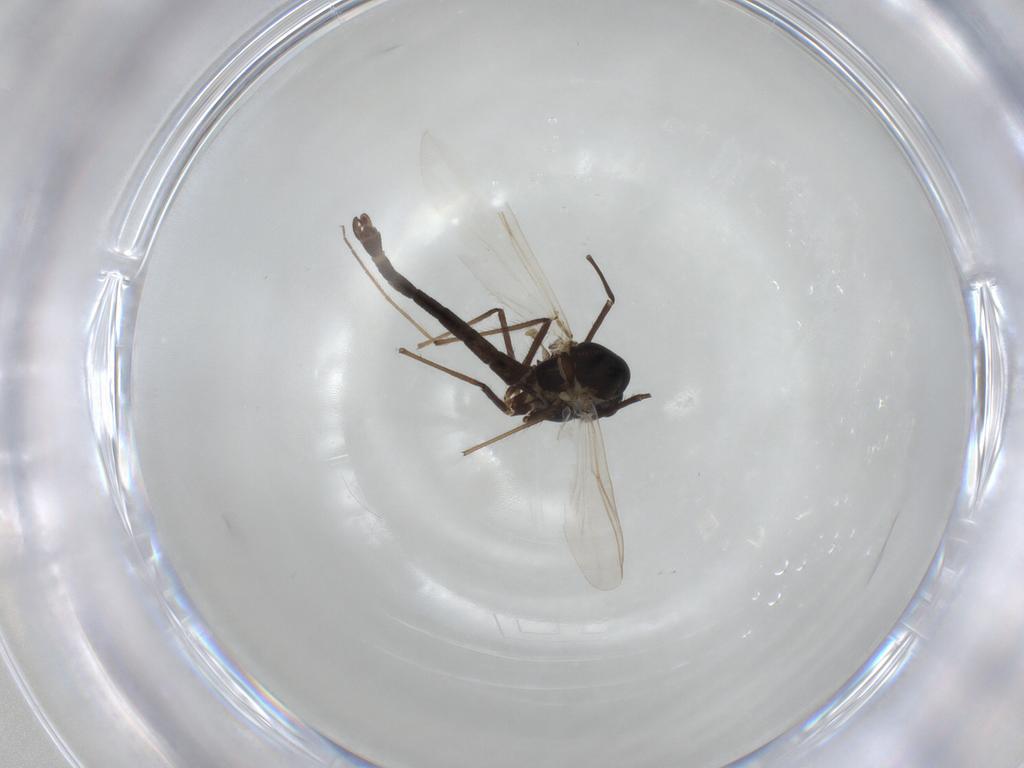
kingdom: Animalia
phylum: Arthropoda
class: Insecta
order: Diptera
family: Chironomidae
